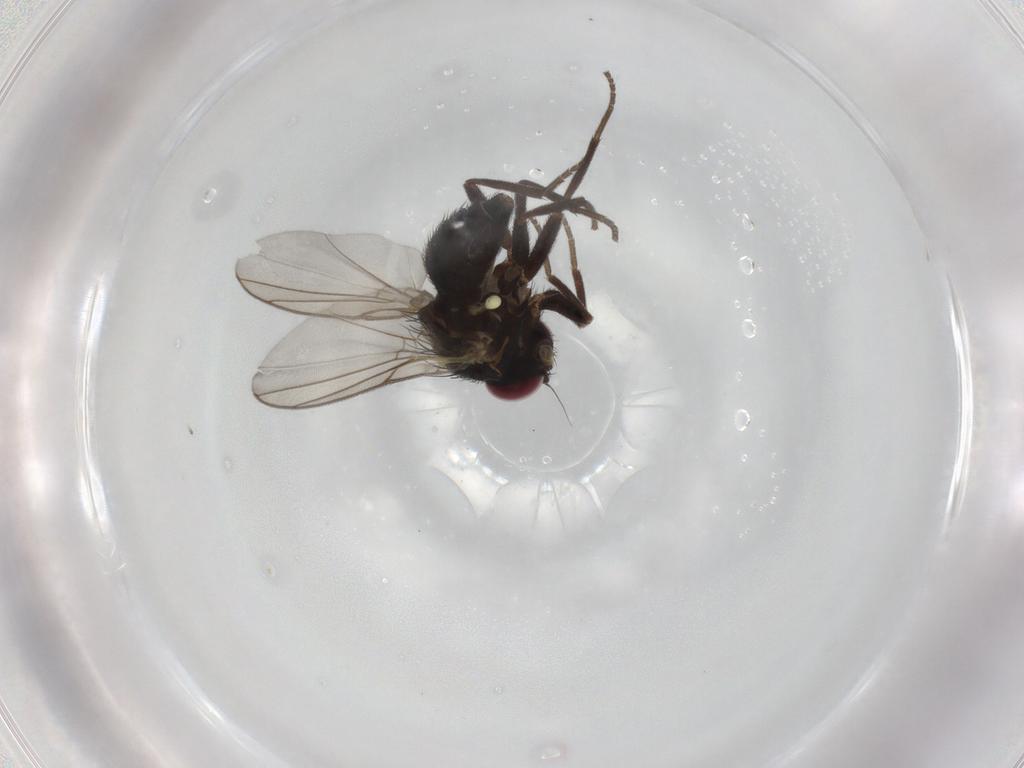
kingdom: Animalia
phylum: Arthropoda
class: Insecta
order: Diptera
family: Agromyzidae
